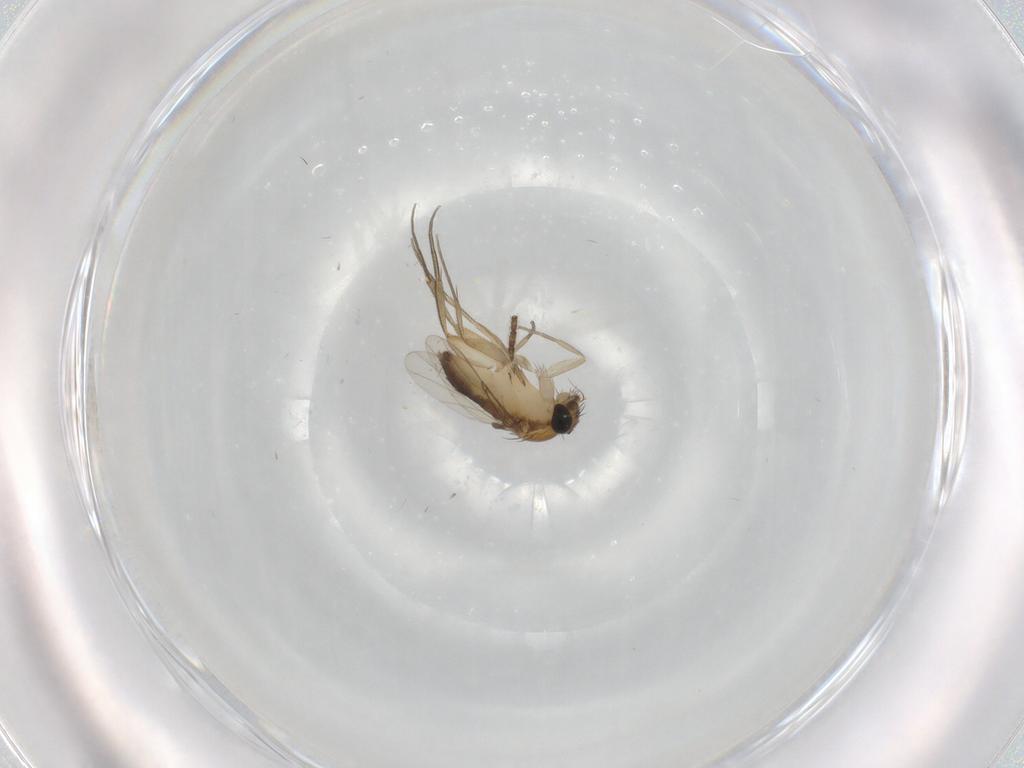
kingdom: Animalia
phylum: Arthropoda
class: Insecta
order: Diptera
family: Phoridae
